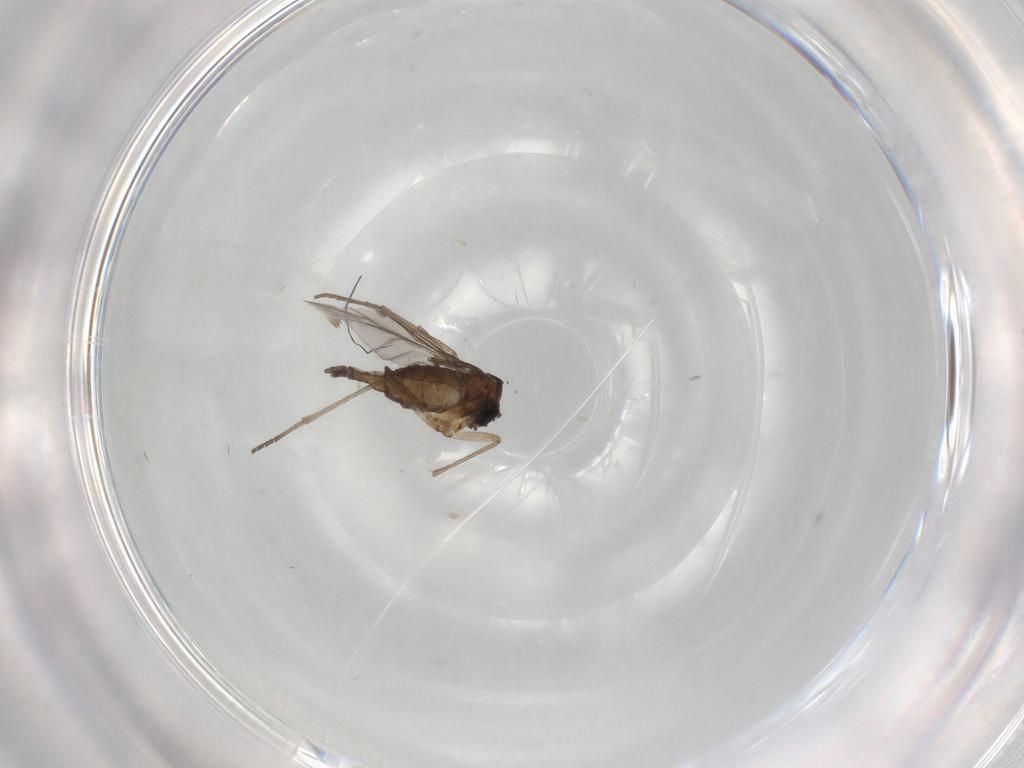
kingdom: Animalia
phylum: Arthropoda
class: Insecta
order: Diptera
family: Sciaridae
